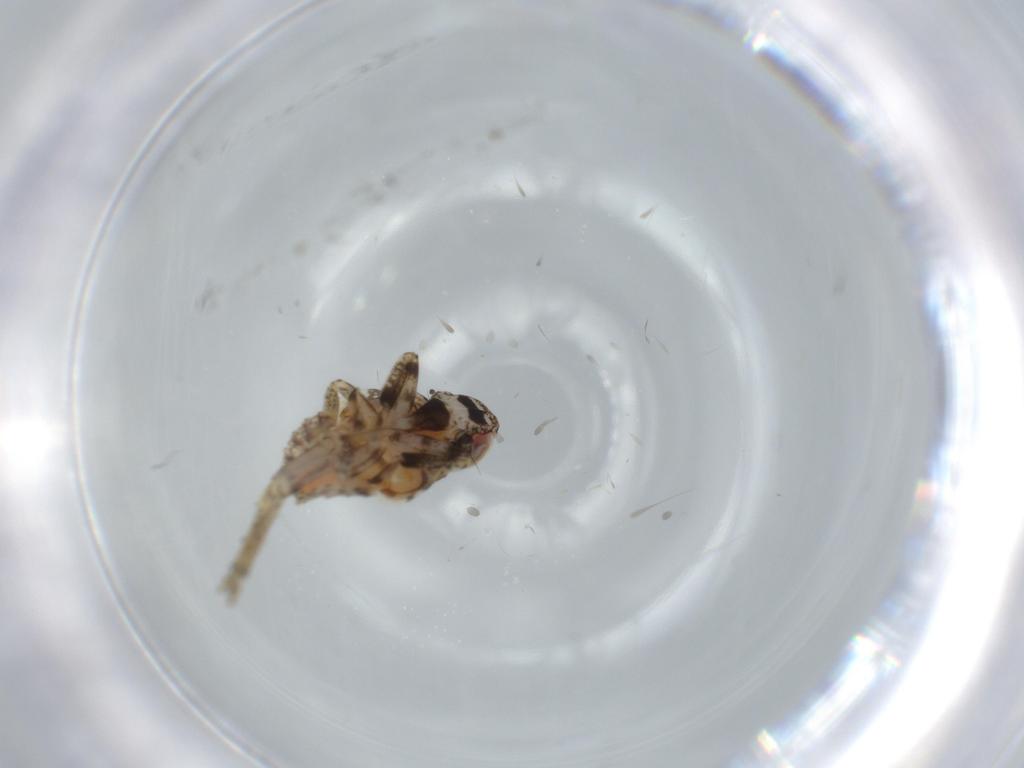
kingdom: Animalia
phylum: Arthropoda
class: Insecta
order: Hemiptera
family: Issidae
